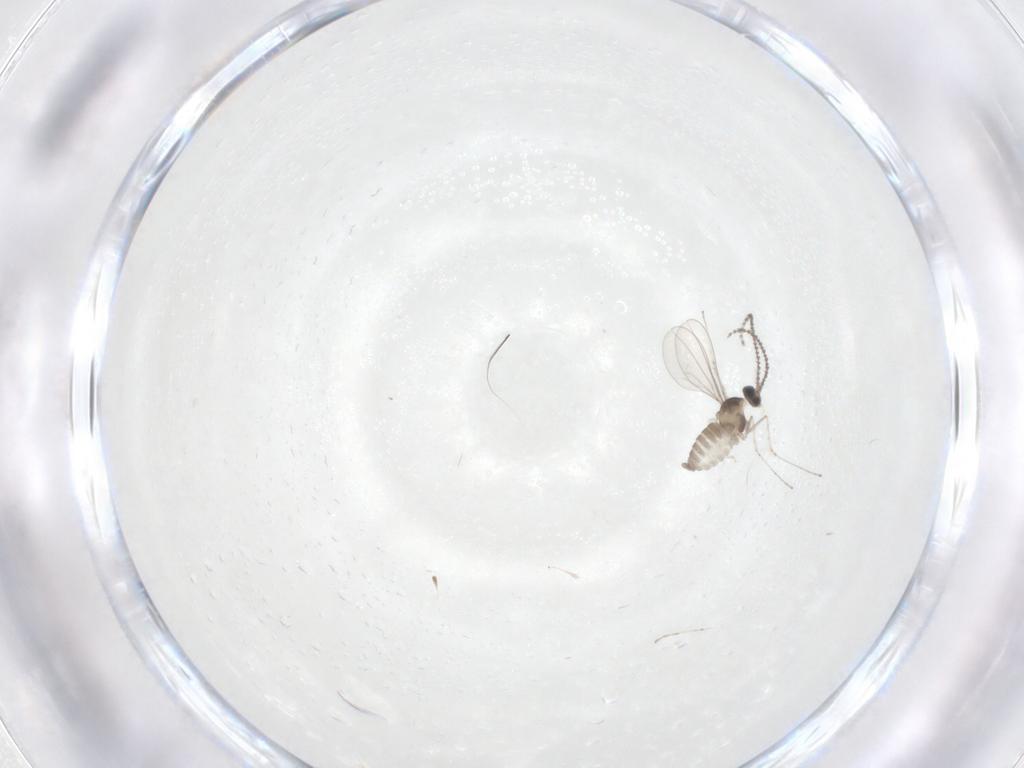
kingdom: Animalia
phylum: Arthropoda
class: Insecta
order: Diptera
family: Cecidomyiidae
